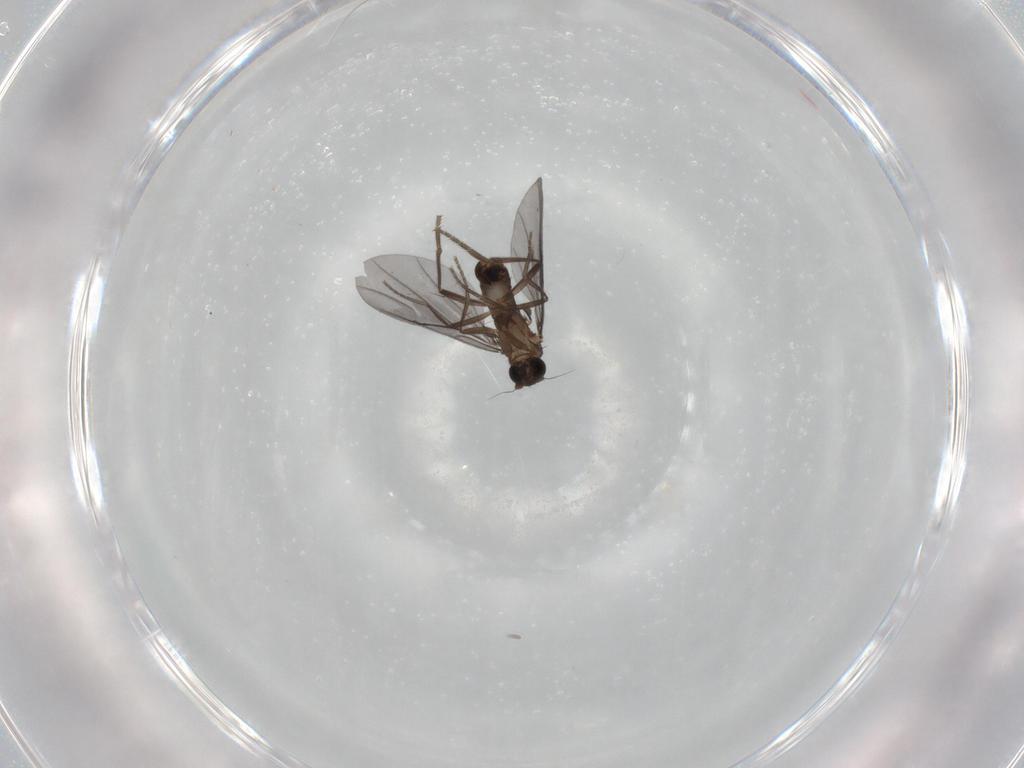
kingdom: Animalia
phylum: Arthropoda
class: Insecta
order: Diptera
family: Phoridae
